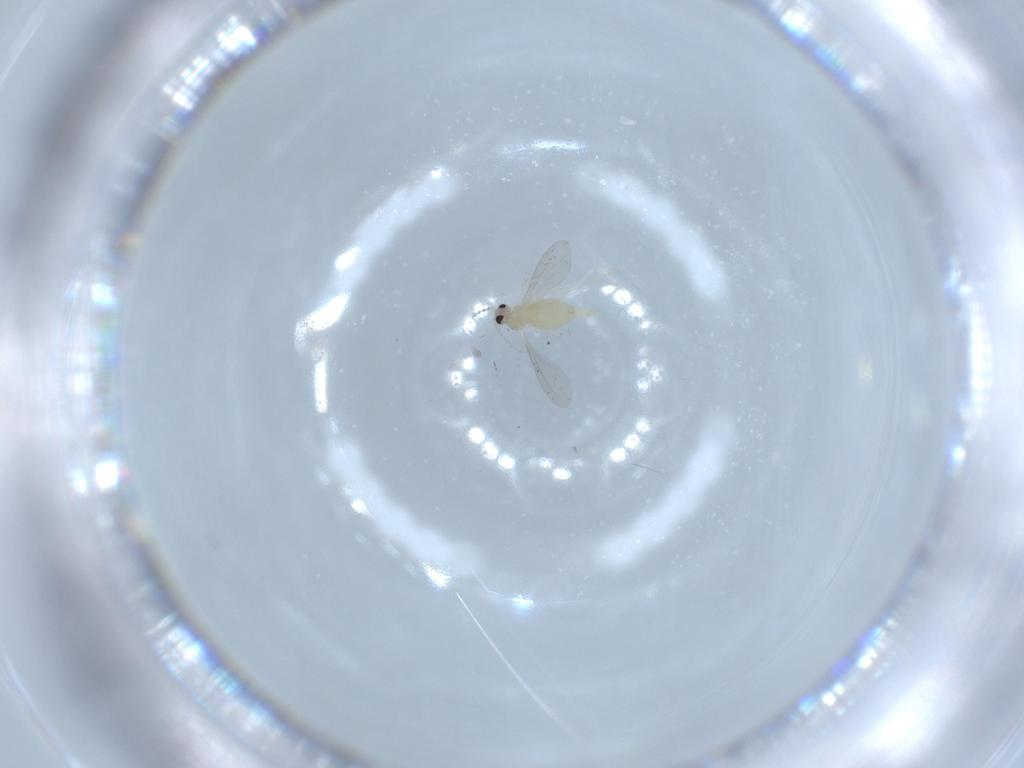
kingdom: Animalia
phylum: Arthropoda
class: Insecta
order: Diptera
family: Cecidomyiidae
